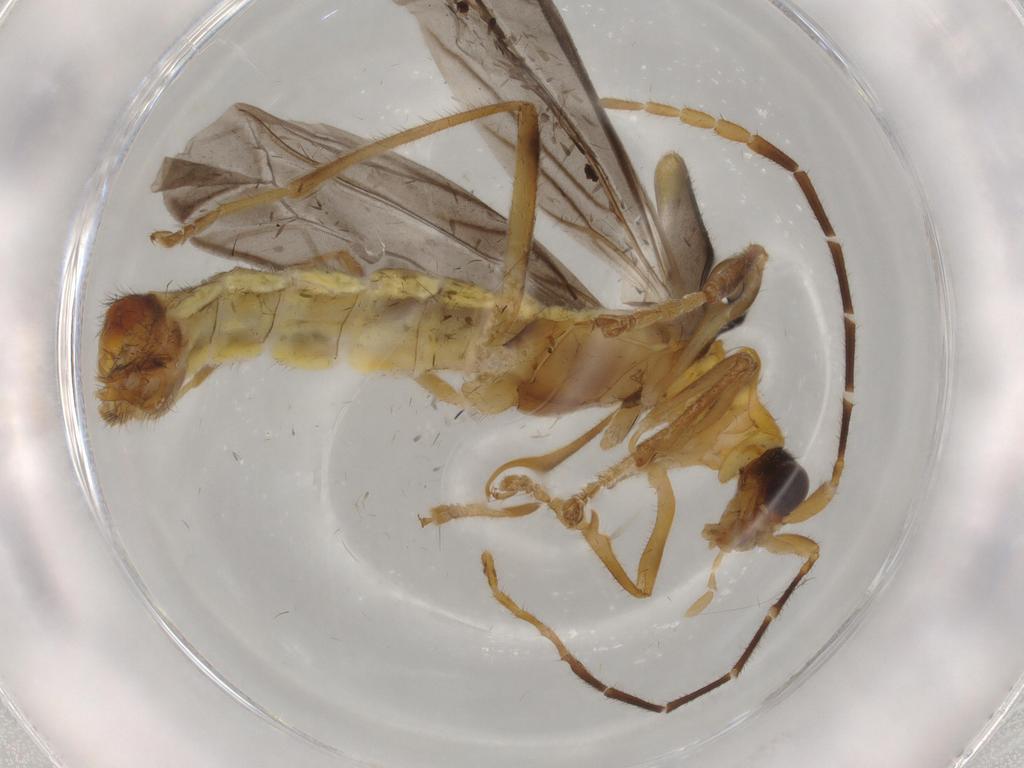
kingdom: Animalia
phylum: Arthropoda
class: Insecta
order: Coleoptera
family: Cantharidae
